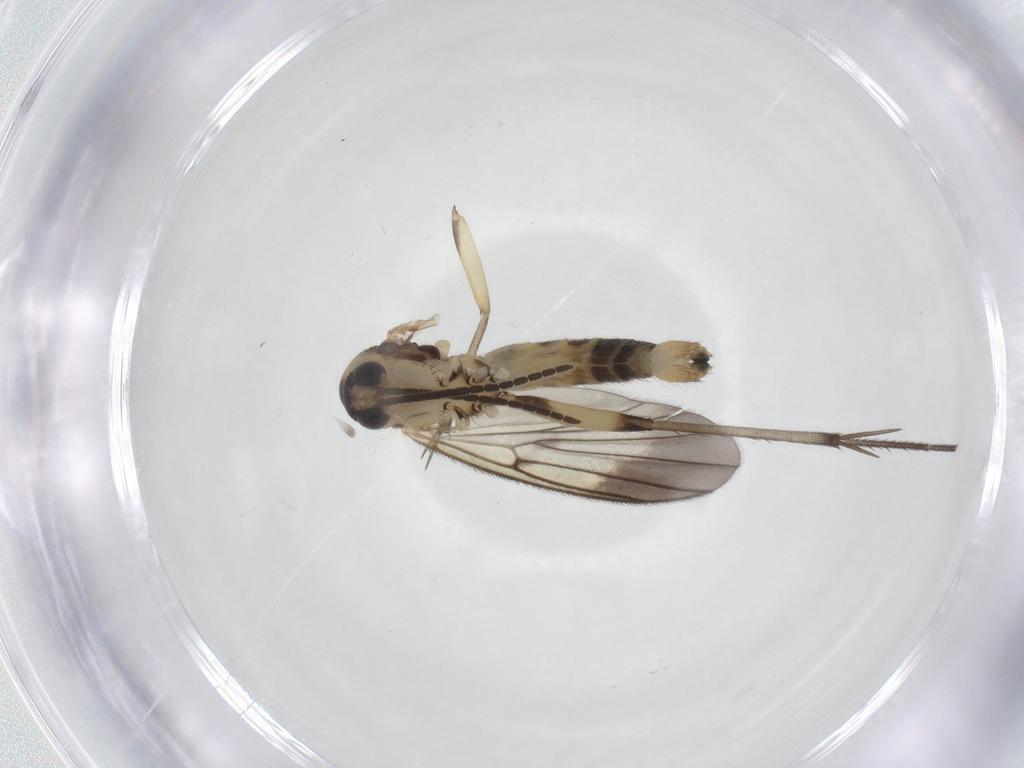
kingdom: Animalia
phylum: Arthropoda
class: Insecta
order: Diptera
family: Mycetophilidae
